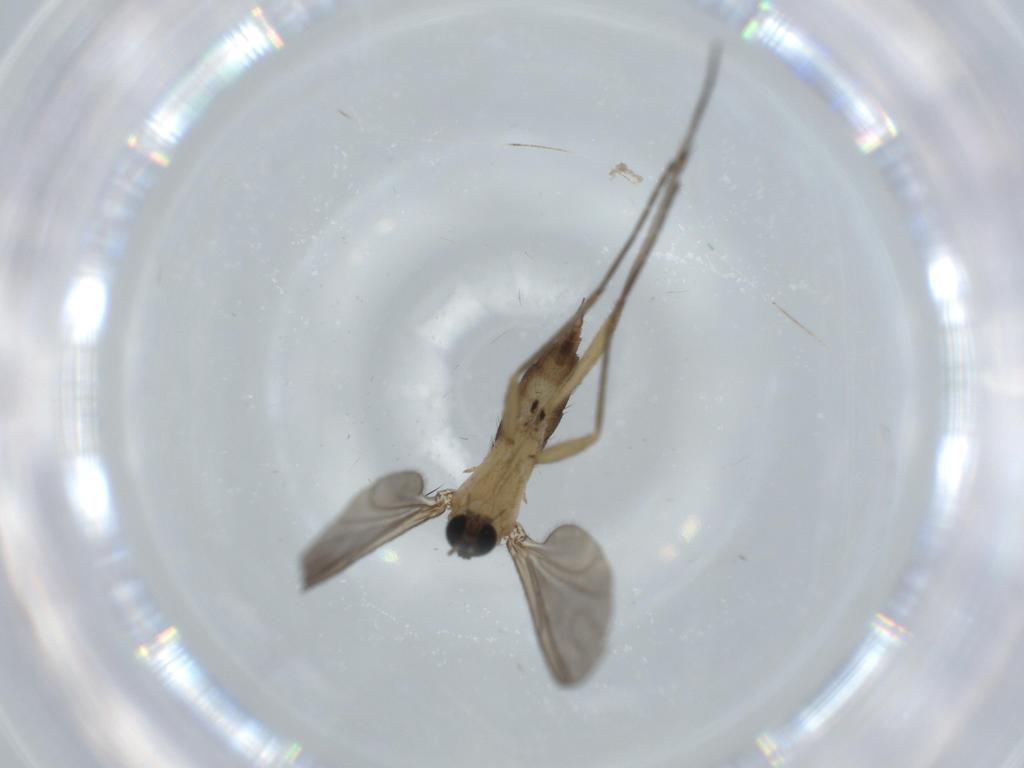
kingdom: Animalia
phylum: Arthropoda
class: Insecta
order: Diptera
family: Sciaridae
